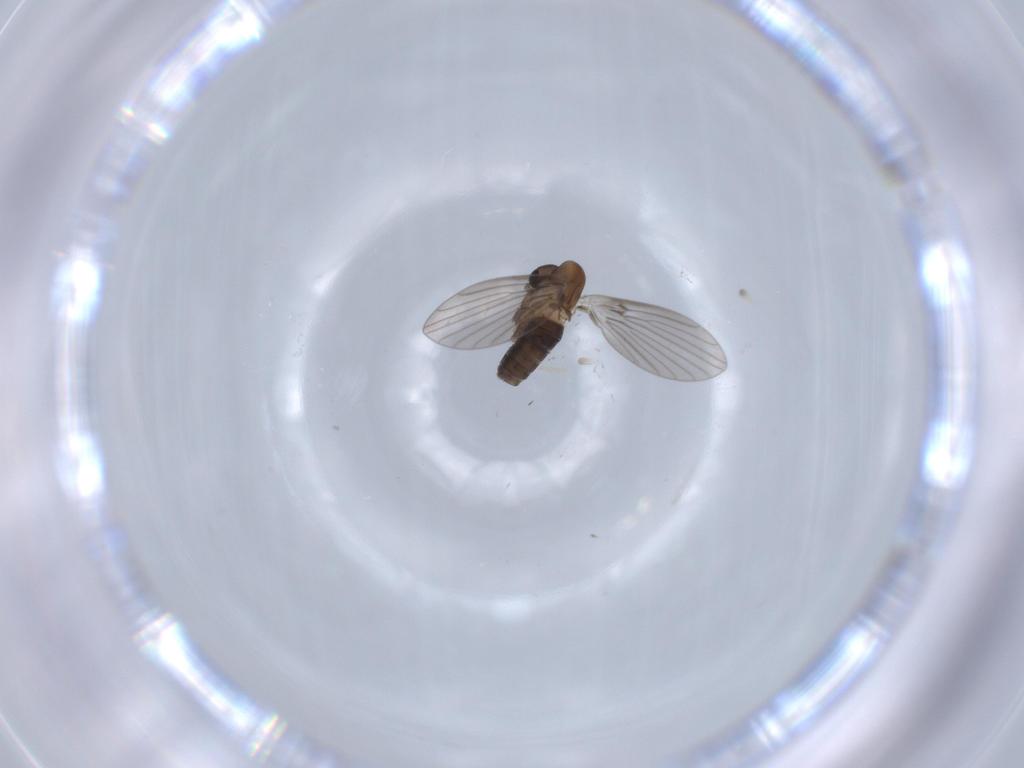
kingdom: Animalia
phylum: Arthropoda
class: Insecta
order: Diptera
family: Psychodidae
